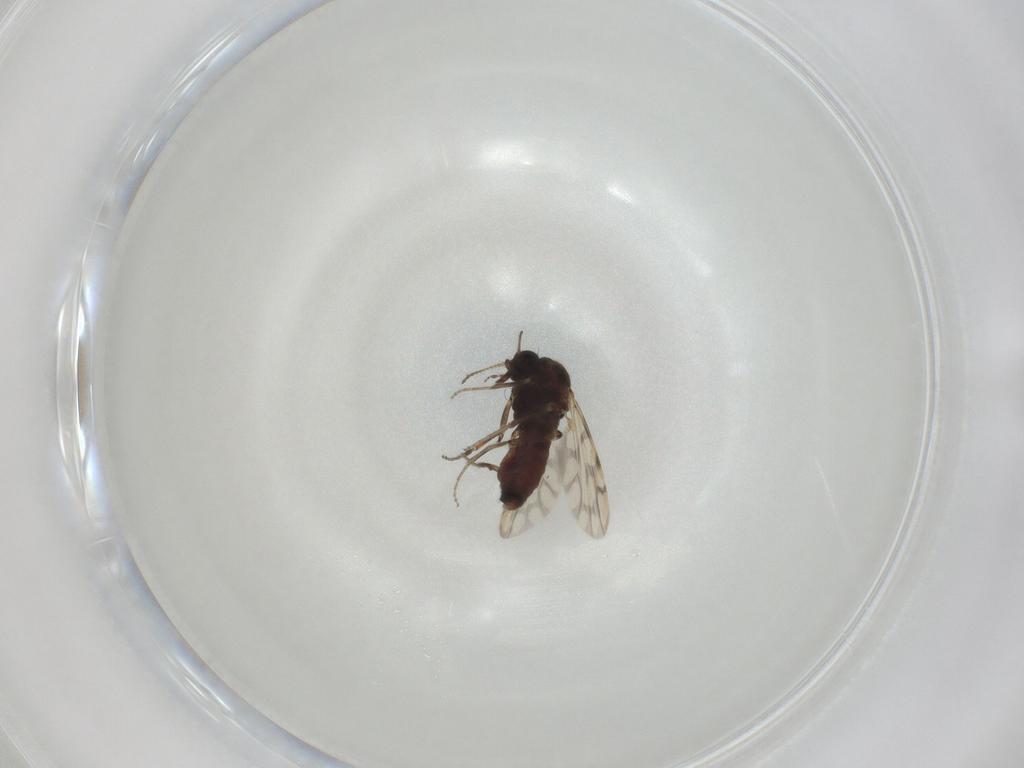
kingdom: Animalia
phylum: Arthropoda
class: Insecta
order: Diptera
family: Ceratopogonidae
